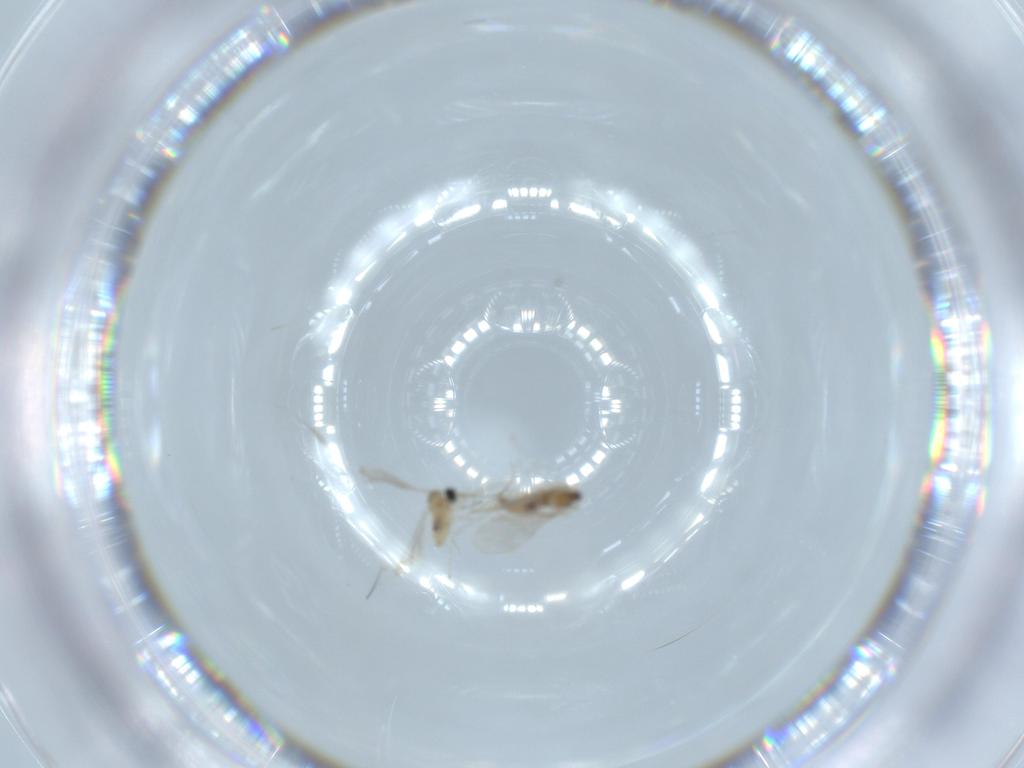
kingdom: Animalia
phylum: Arthropoda
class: Insecta
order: Diptera
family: Cecidomyiidae
